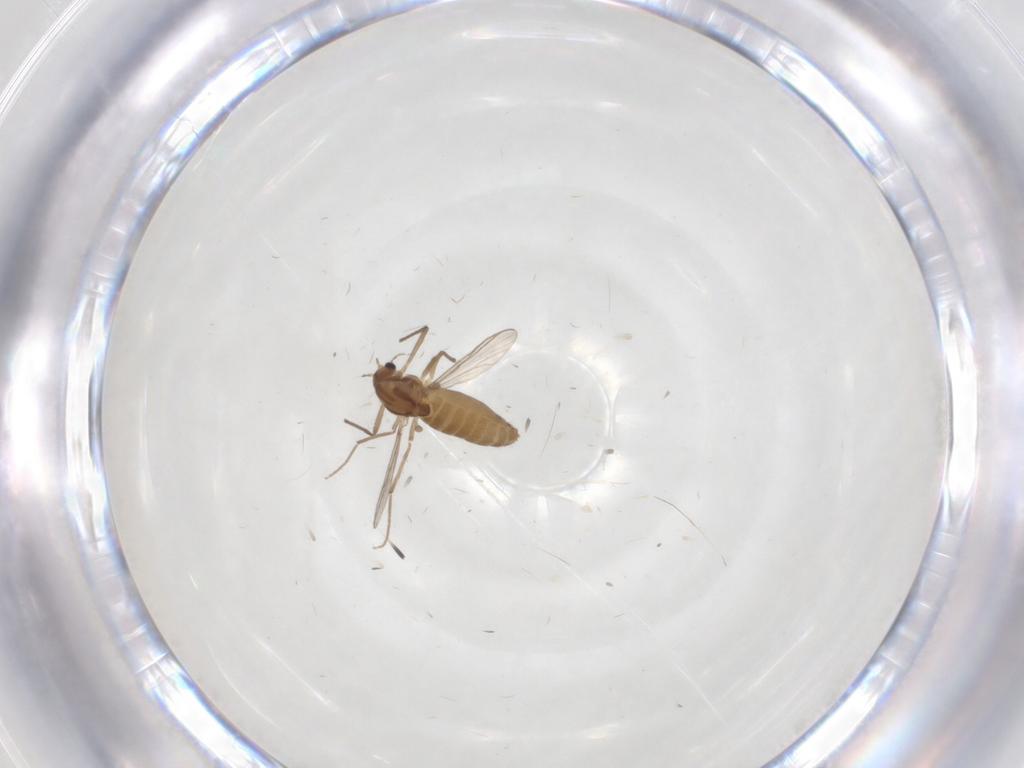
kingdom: Animalia
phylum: Arthropoda
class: Insecta
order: Diptera
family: Chironomidae
